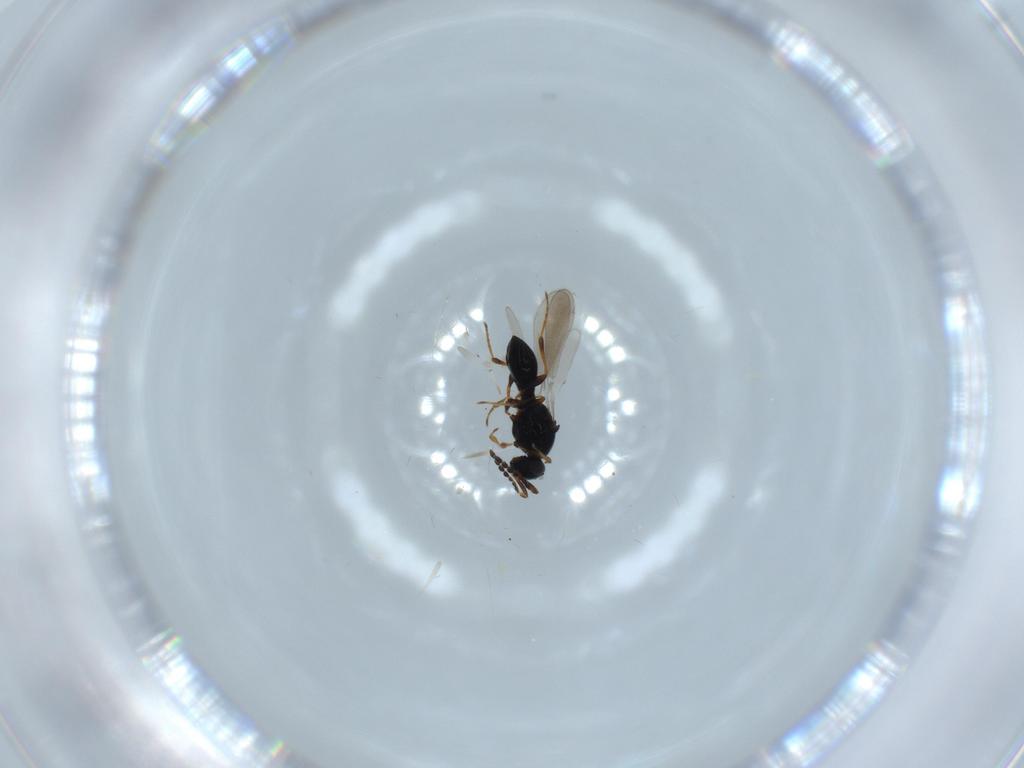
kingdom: Animalia
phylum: Arthropoda
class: Insecta
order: Hymenoptera
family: Platygastridae
